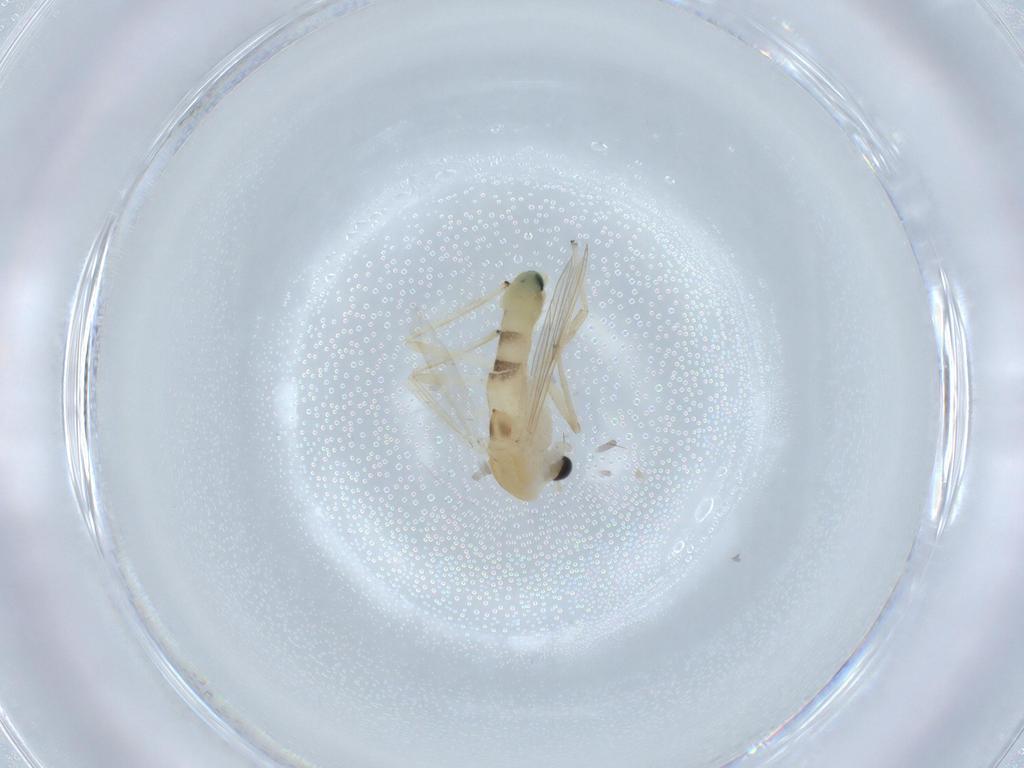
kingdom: Animalia
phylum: Arthropoda
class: Insecta
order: Diptera
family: Chironomidae
